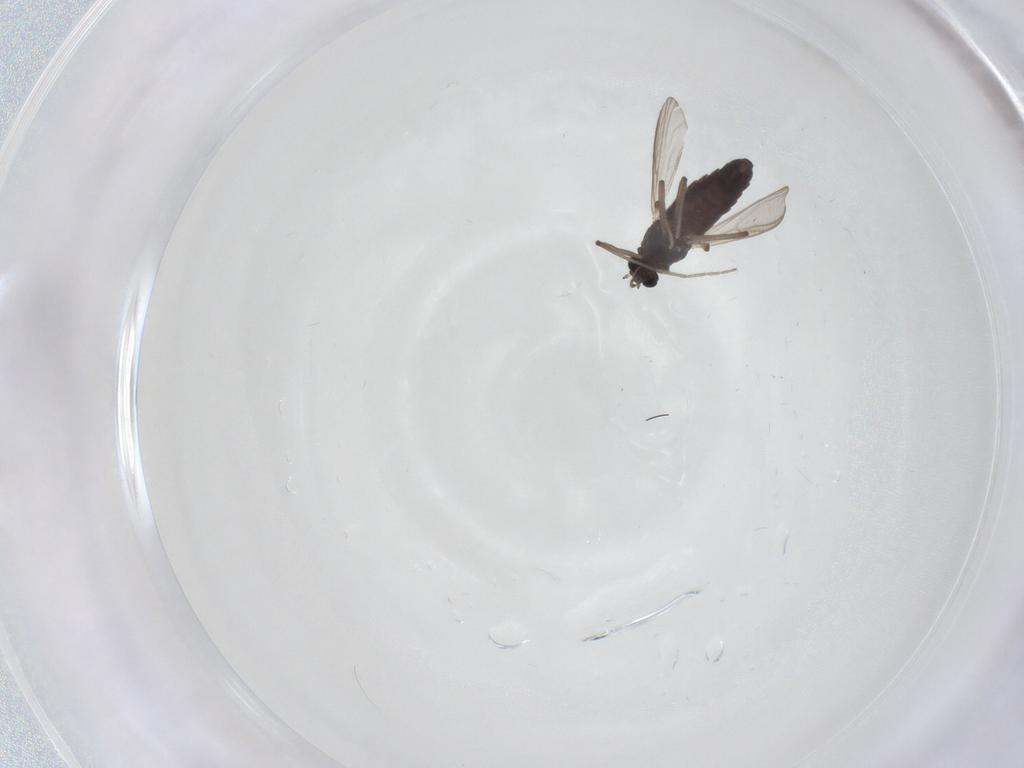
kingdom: Animalia
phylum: Arthropoda
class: Insecta
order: Diptera
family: Chironomidae
